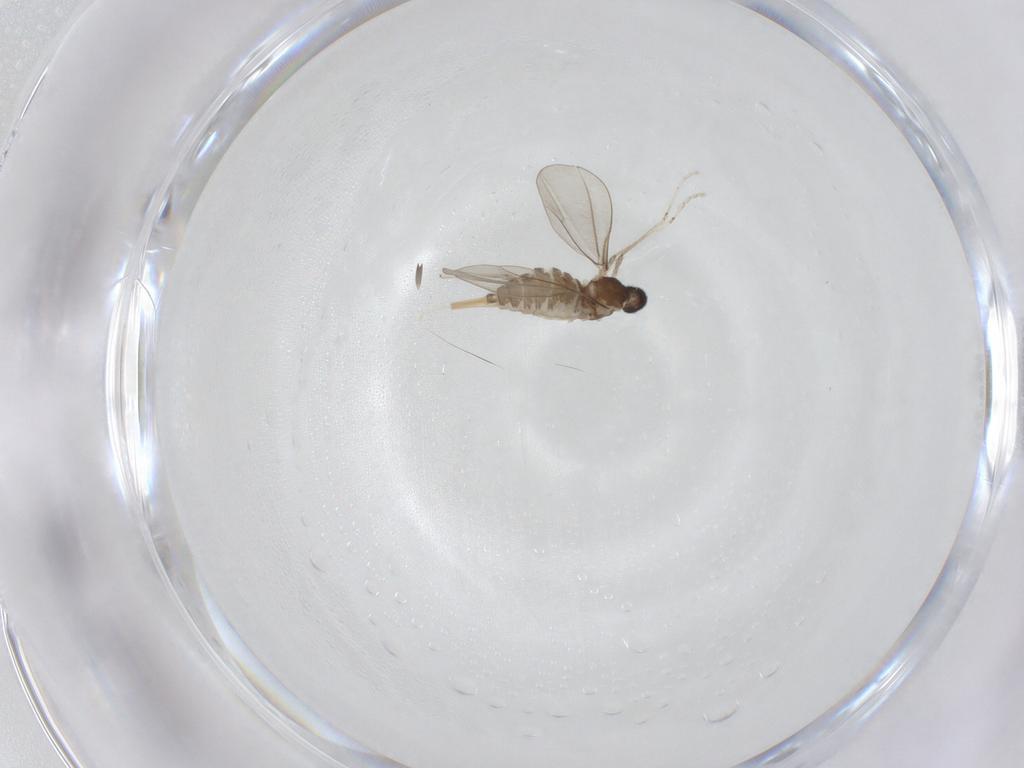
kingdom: Animalia
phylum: Arthropoda
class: Insecta
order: Diptera
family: Cecidomyiidae
